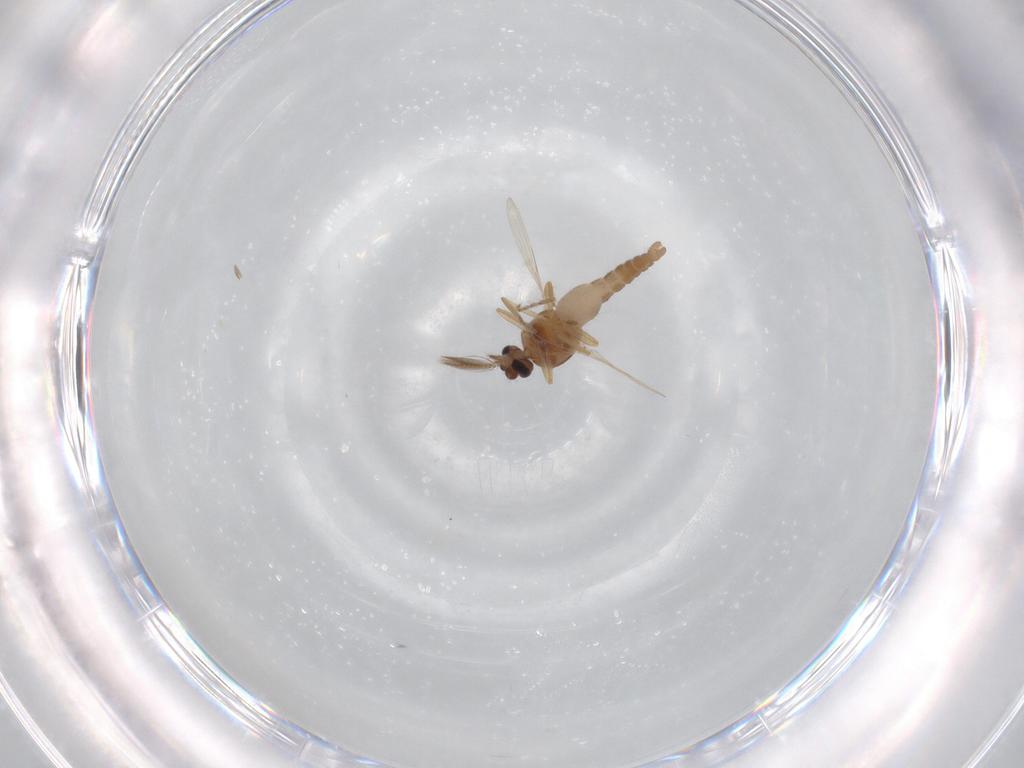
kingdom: Animalia
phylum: Arthropoda
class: Insecta
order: Diptera
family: Ceratopogonidae
